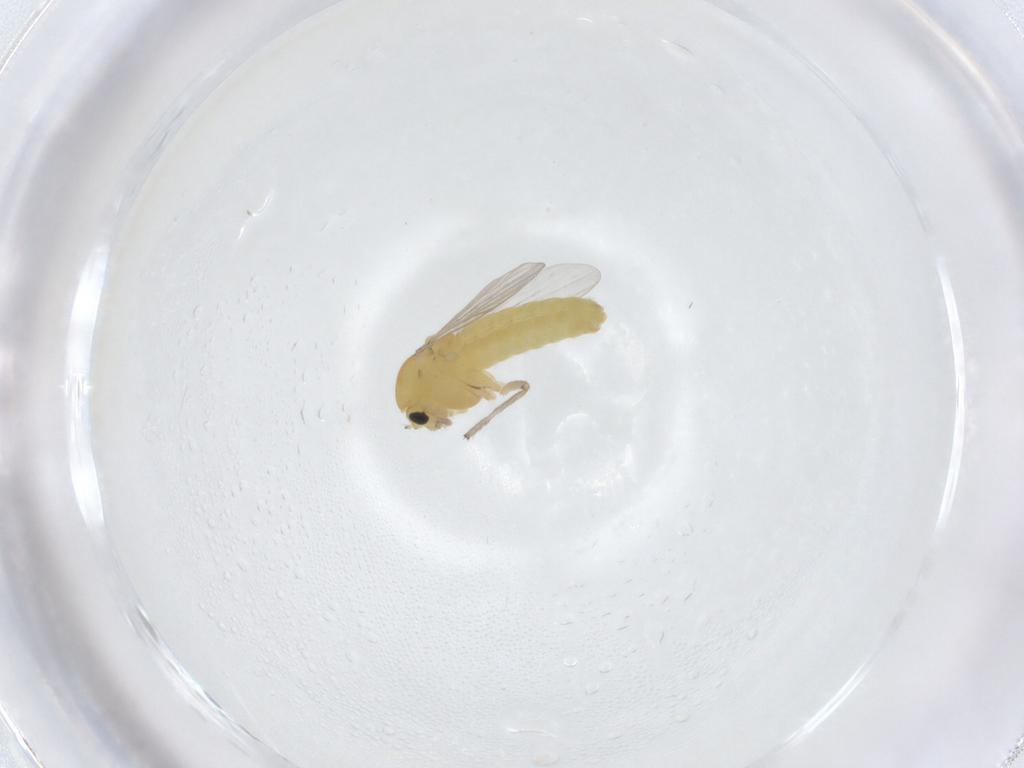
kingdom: Animalia
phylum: Arthropoda
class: Insecta
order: Diptera
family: Chironomidae
